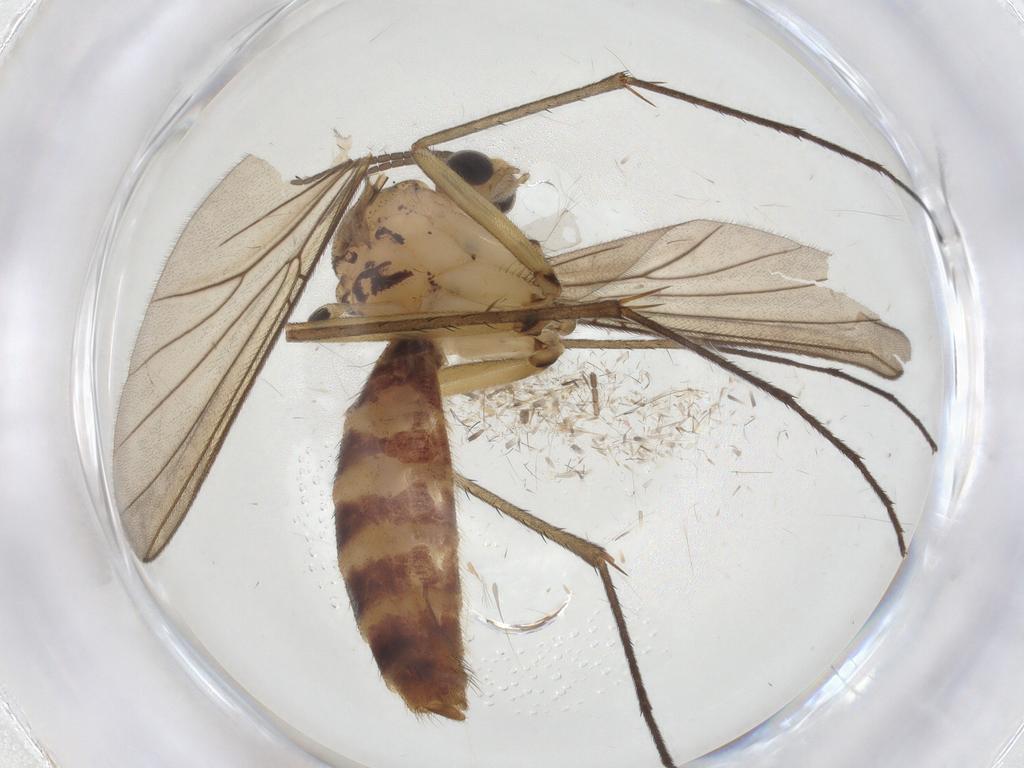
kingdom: Animalia
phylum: Arthropoda
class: Insecta
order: Diptera
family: Mycetophilidae
